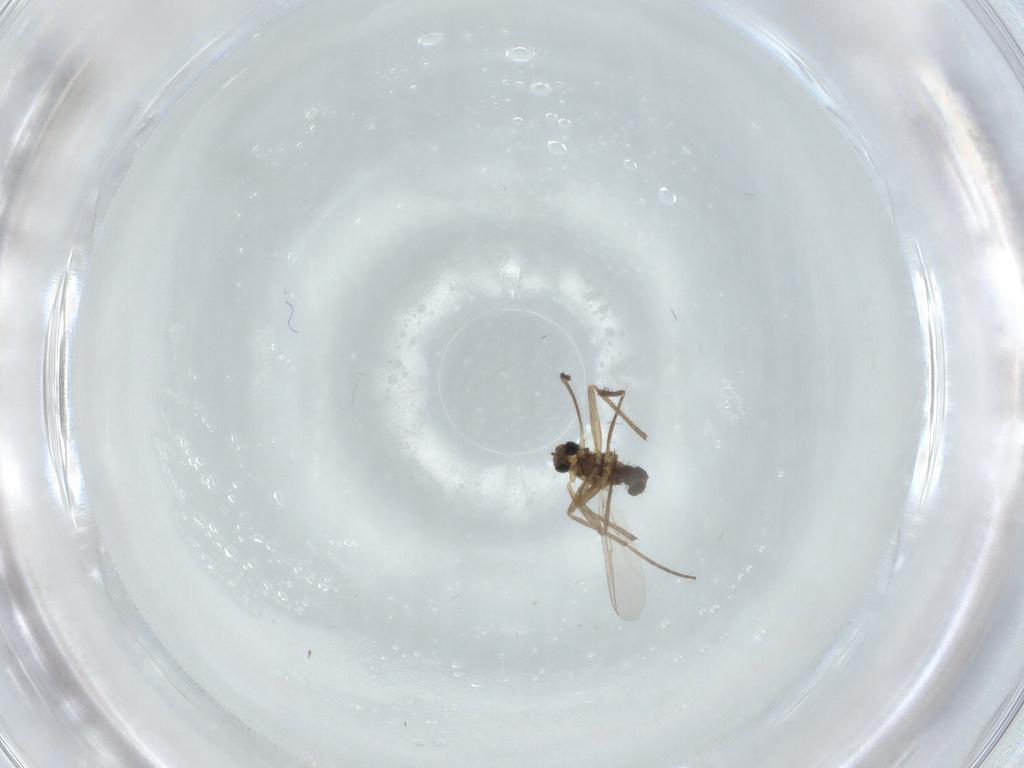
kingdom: Animalia
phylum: Arthropoda
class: Insecta
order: Diptera
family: Chironomidae
